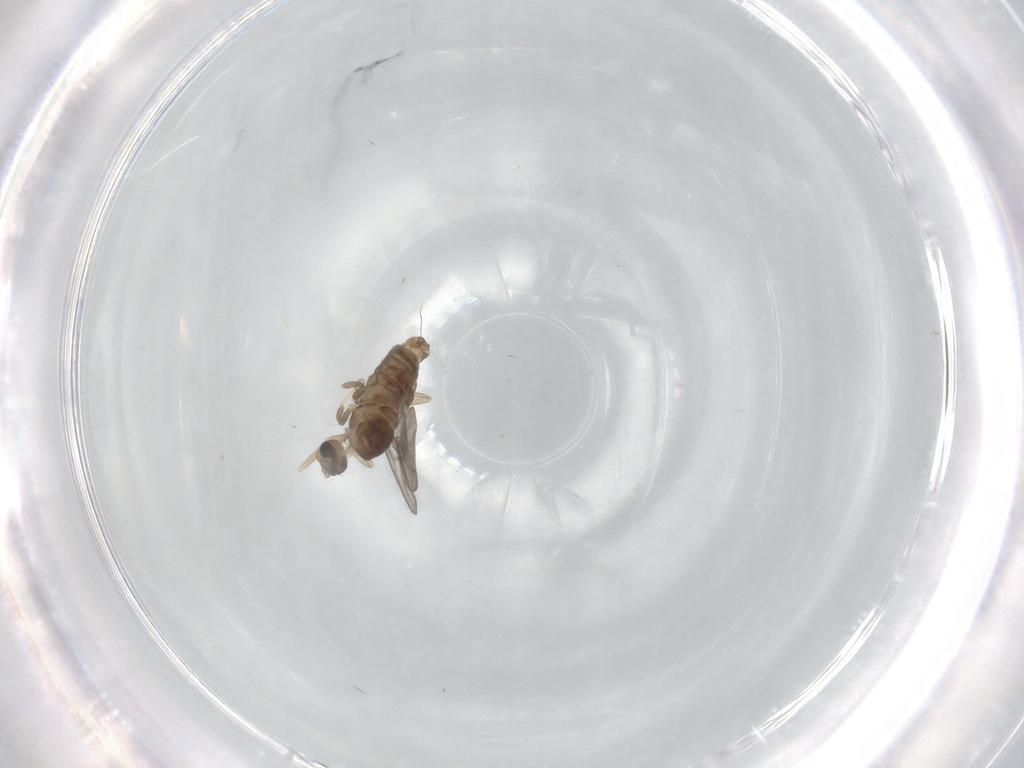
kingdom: Animalia
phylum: Arthropoda
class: Insecta
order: Diptera
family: Cecidomyiidae
